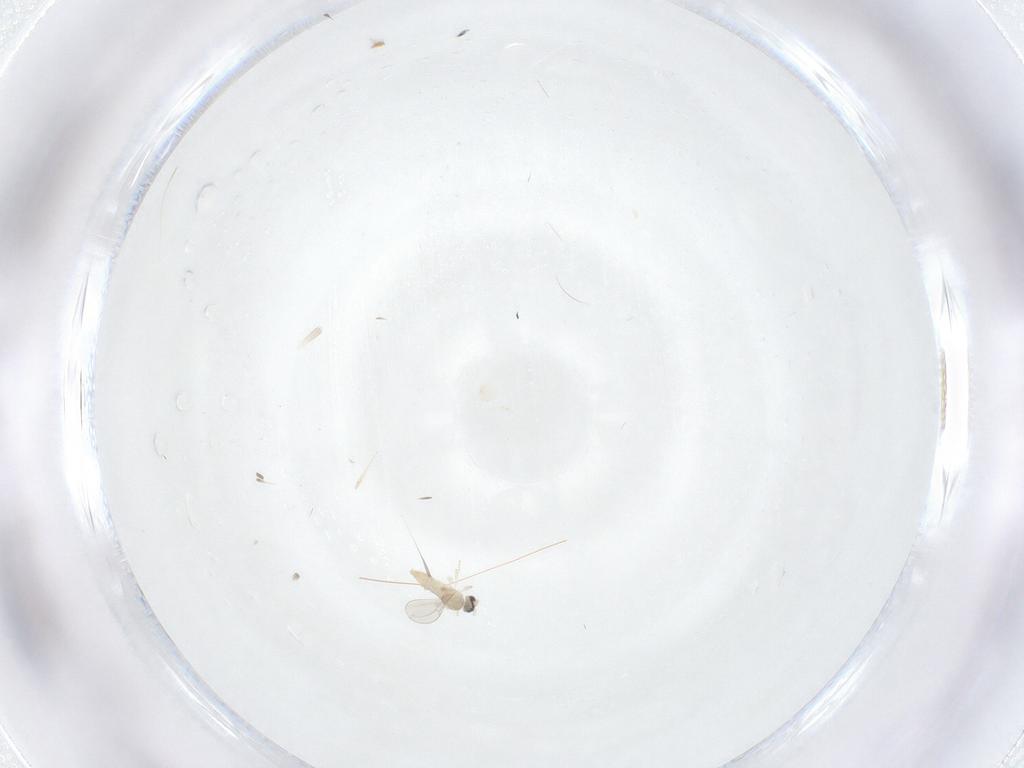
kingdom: Animalia
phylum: Arthropoda
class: Insecta
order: Diptera
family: Cecidomyiidae
